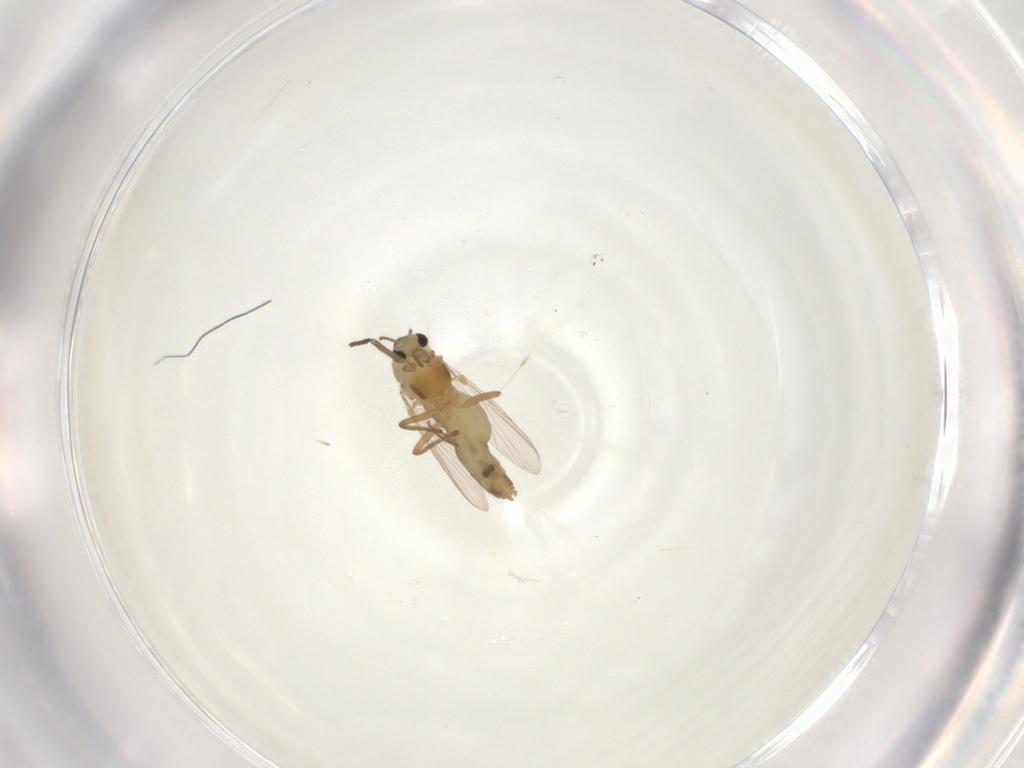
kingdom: Animalia
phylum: Arthropoda
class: Insecta
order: Diptera
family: Chironomidae
